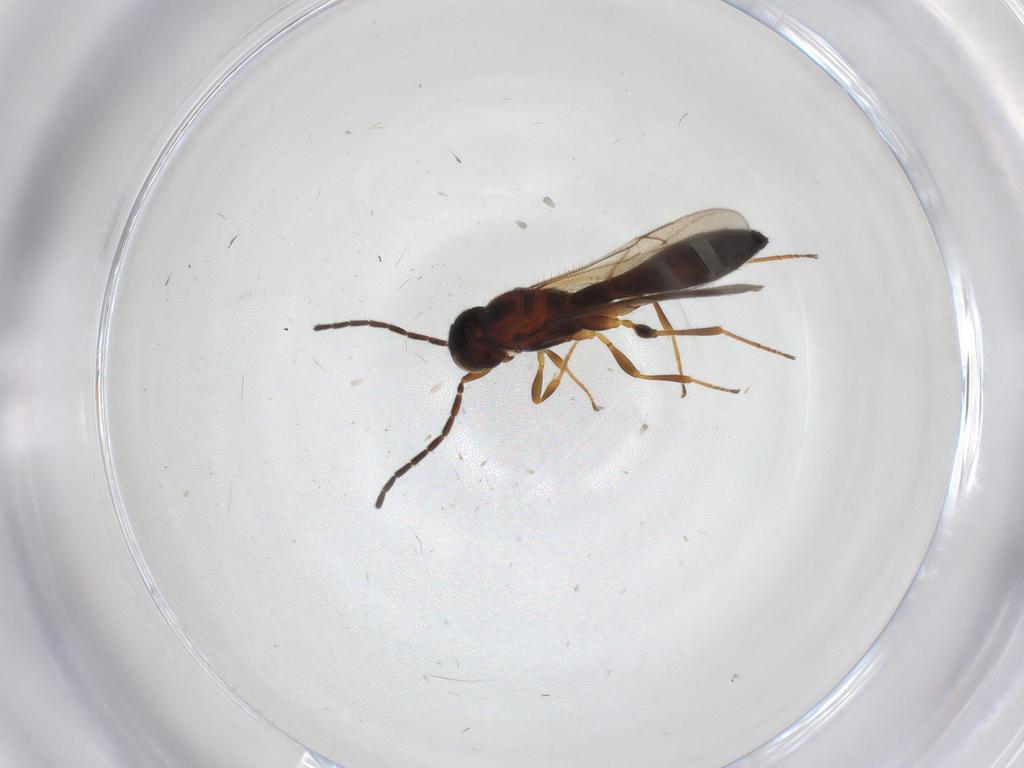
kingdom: Animalia
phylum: Arthropoda
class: Insecta
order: Hymenoptera
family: Scelionidae
